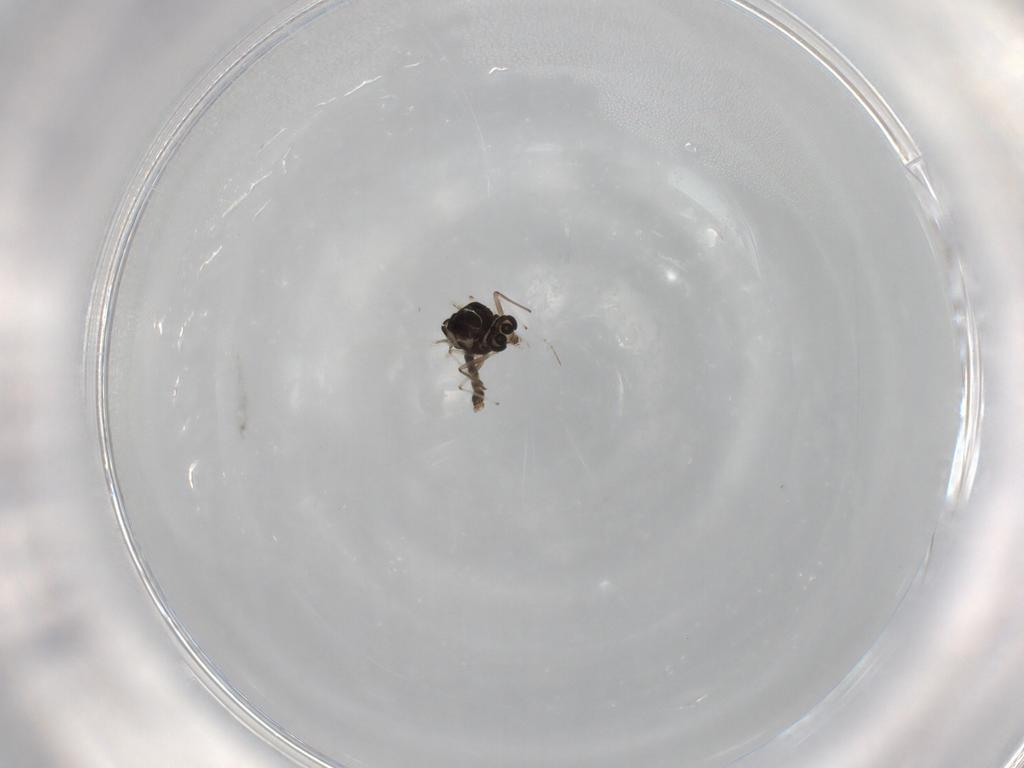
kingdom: Animalia
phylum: Arthropoda
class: Insecta
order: Diptera
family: Chironomidae
